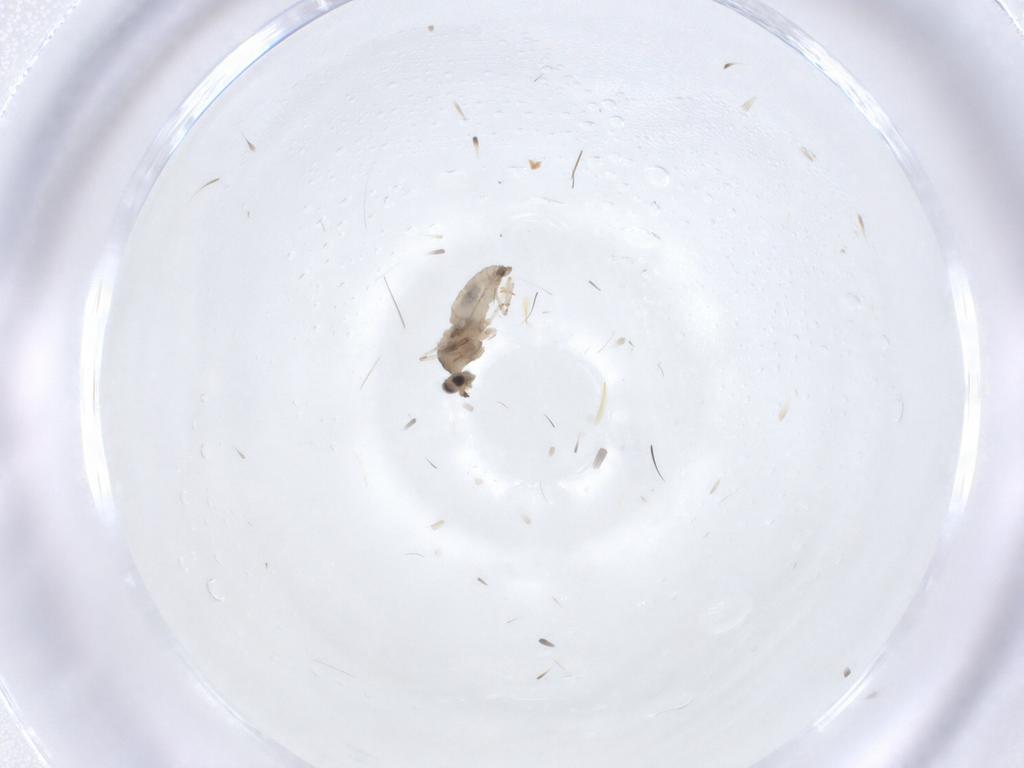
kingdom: Animalia
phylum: Arthropoda
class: Insecta
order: Diptera
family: Cecidomyiidae
